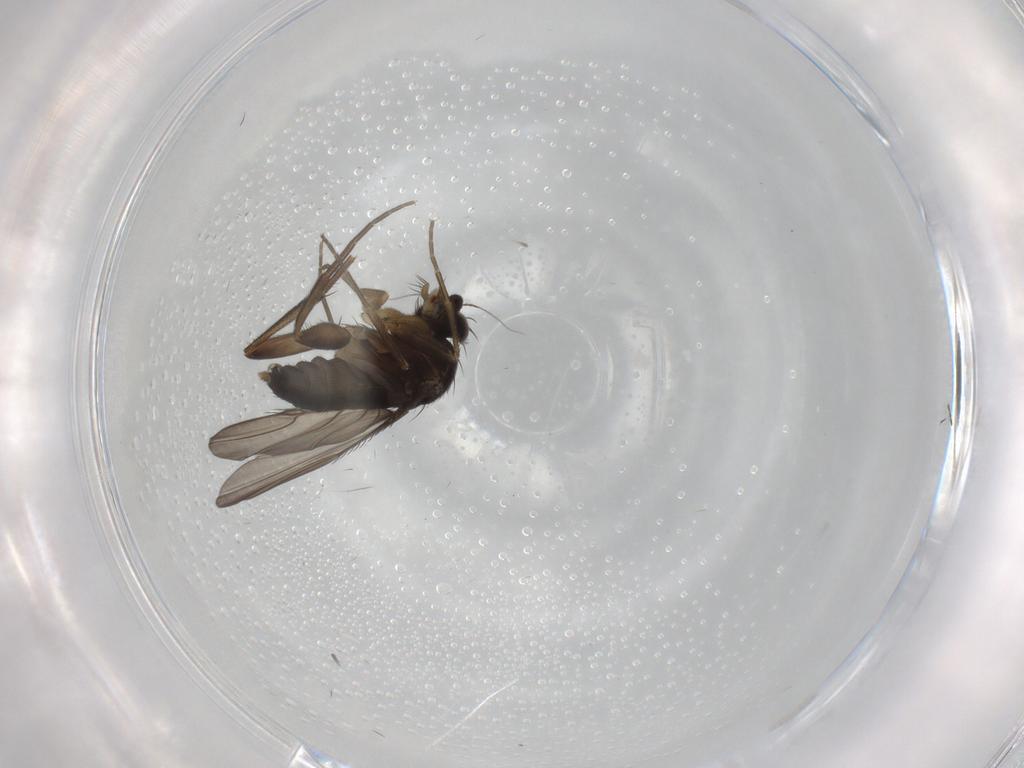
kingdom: Animalia
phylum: Arthropoda
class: Insecta
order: Diptera
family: Phoridae
